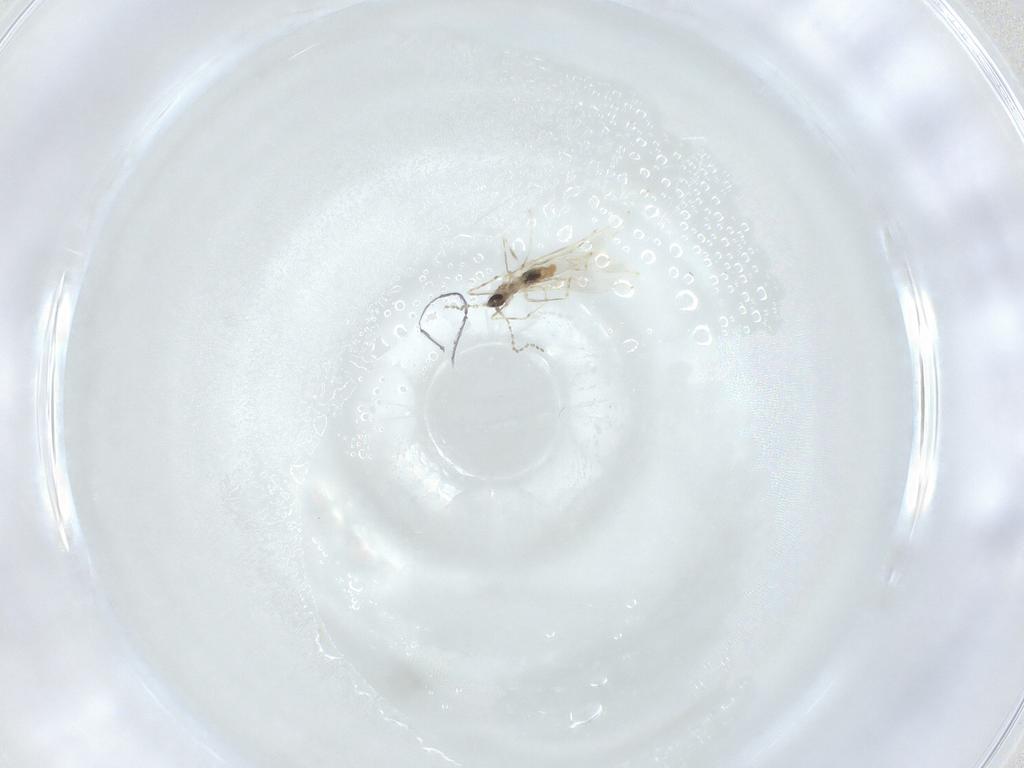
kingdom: Animalia
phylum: Arthropoda
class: Insecta
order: Diptera
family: Cecidomyiidae
